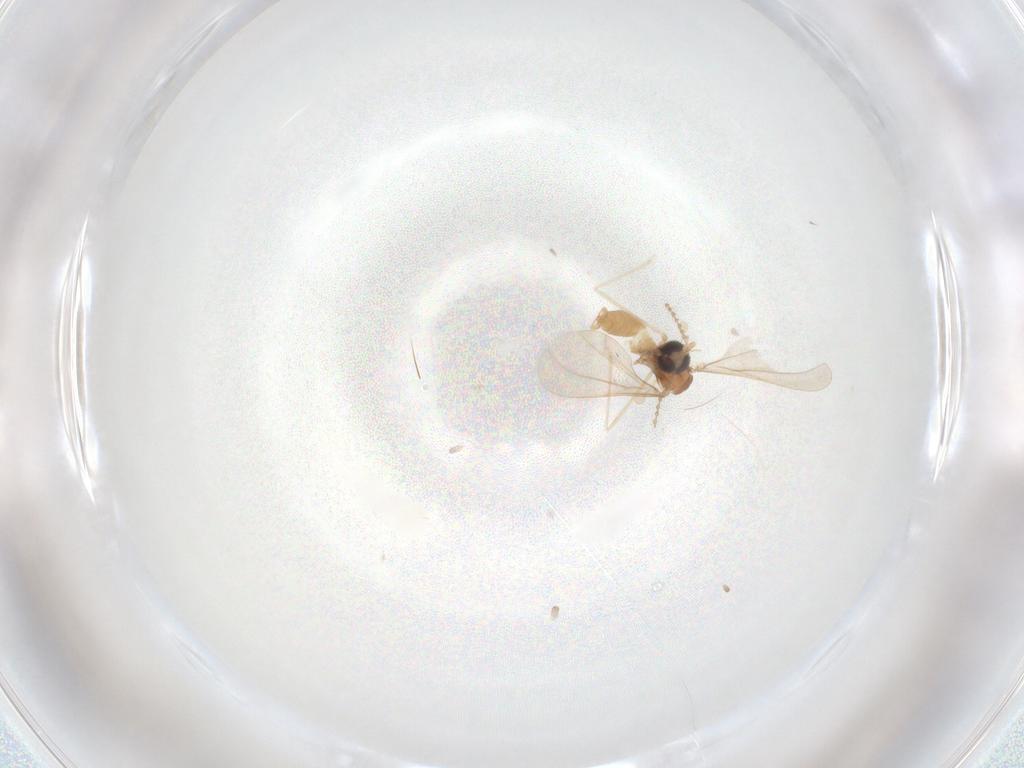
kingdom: Animalia
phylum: Arthropoda
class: Insecta
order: Diptera
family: Cecidomyiidae
